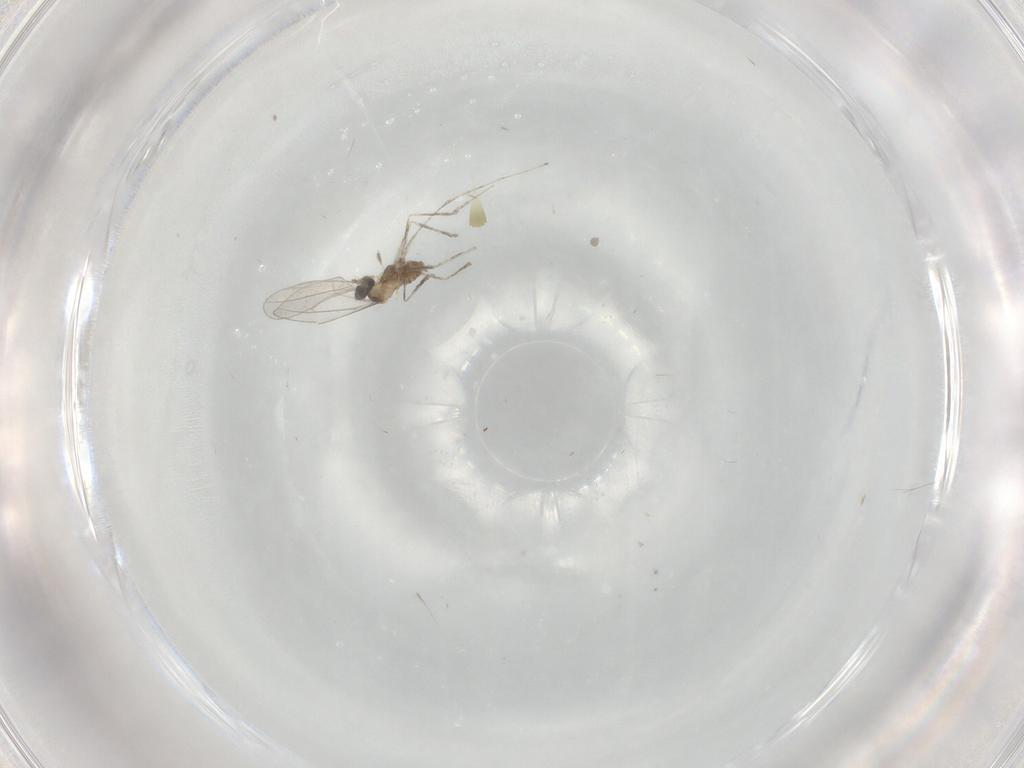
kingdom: Animalia
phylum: Arthropoda
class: Insecta
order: Diptera
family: Cecidomyiidae
